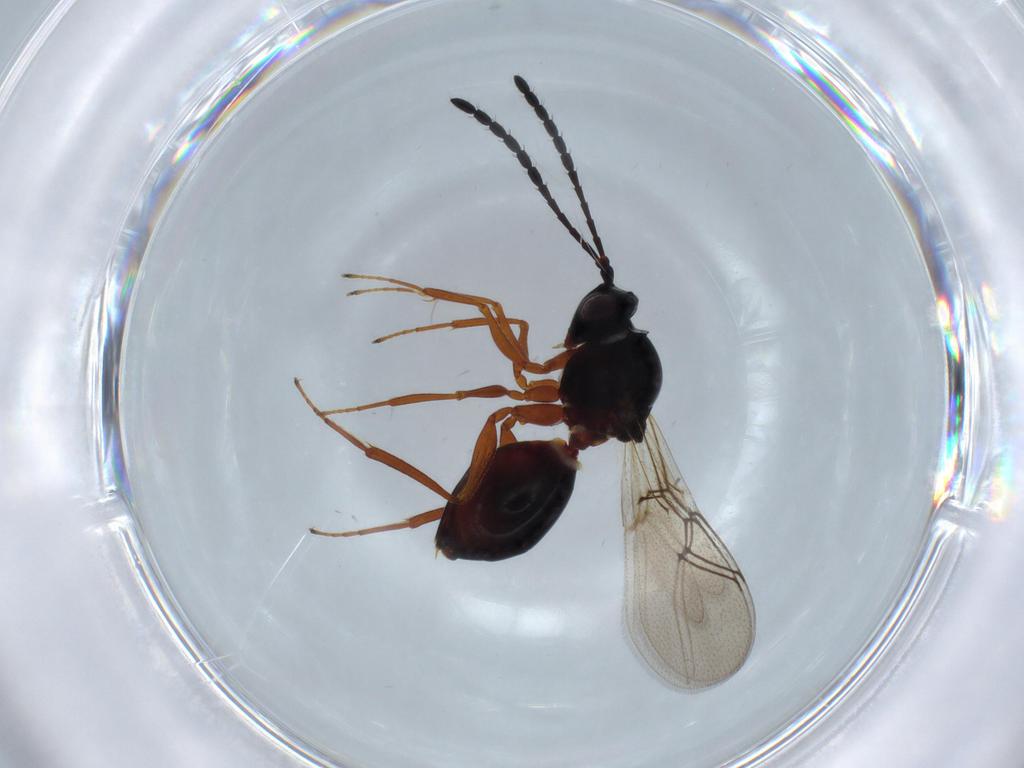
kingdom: Animalia
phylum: Arthropoda
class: Insecta
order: Hymenoptera
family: Figitidae
